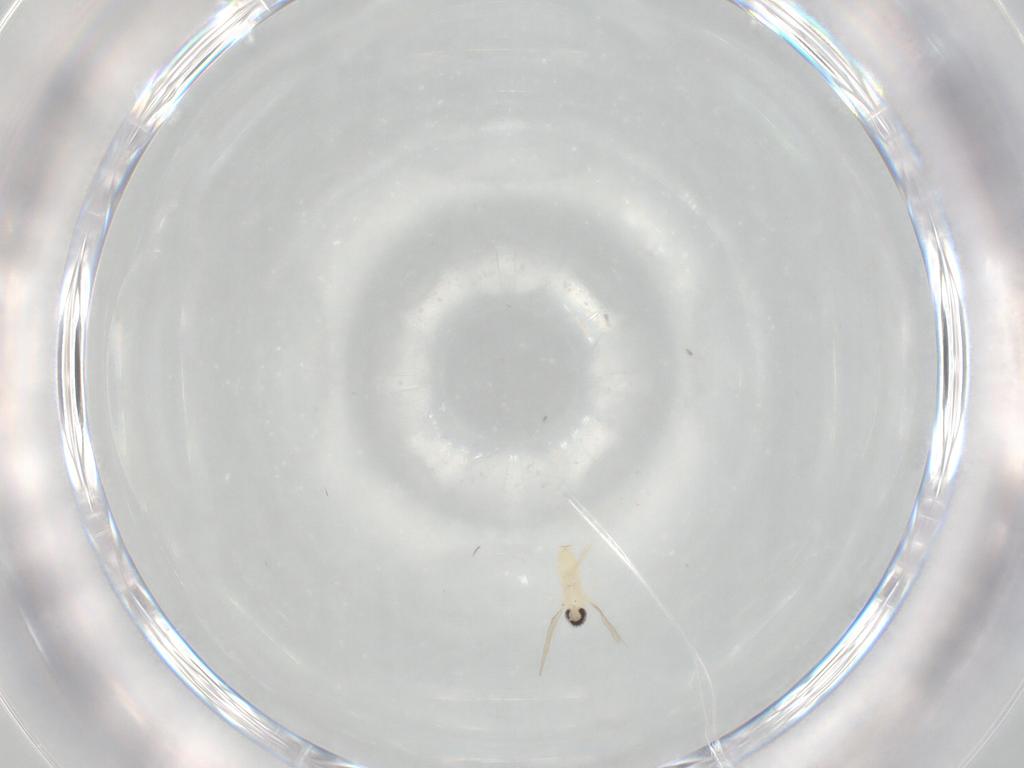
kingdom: Animalia
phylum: Arthropoda
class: Insecta
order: Diptera
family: Cecidomyiidae
